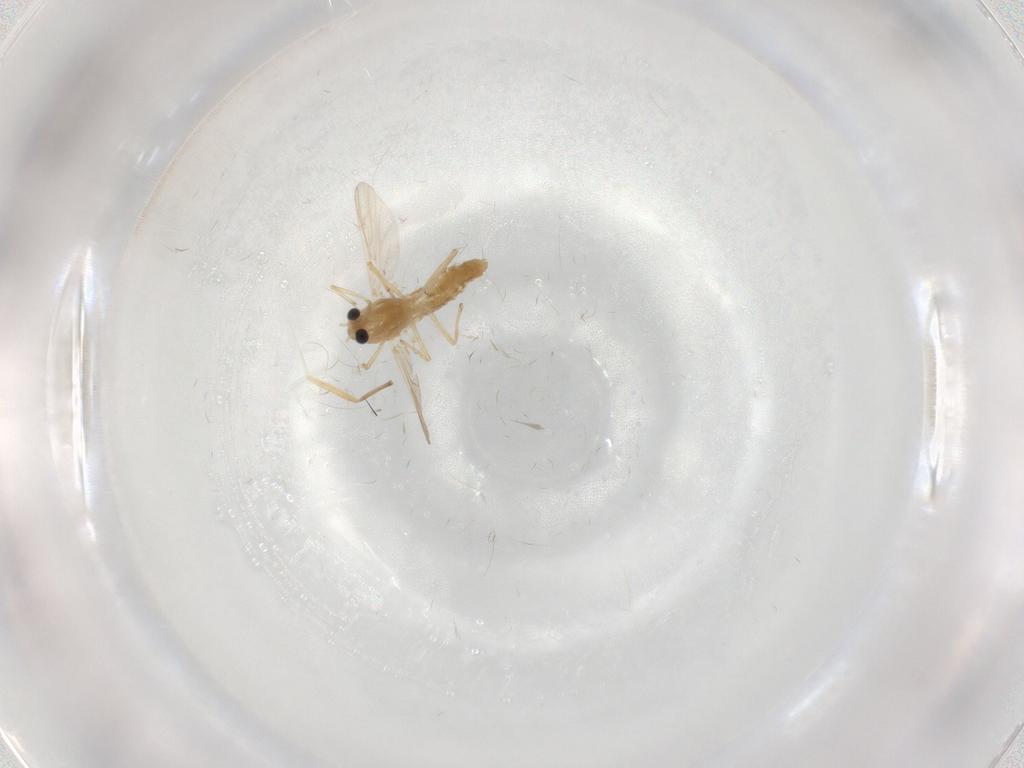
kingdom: Animalia
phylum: Arthropoda
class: Insecta
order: Diptera
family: Chironomidae
